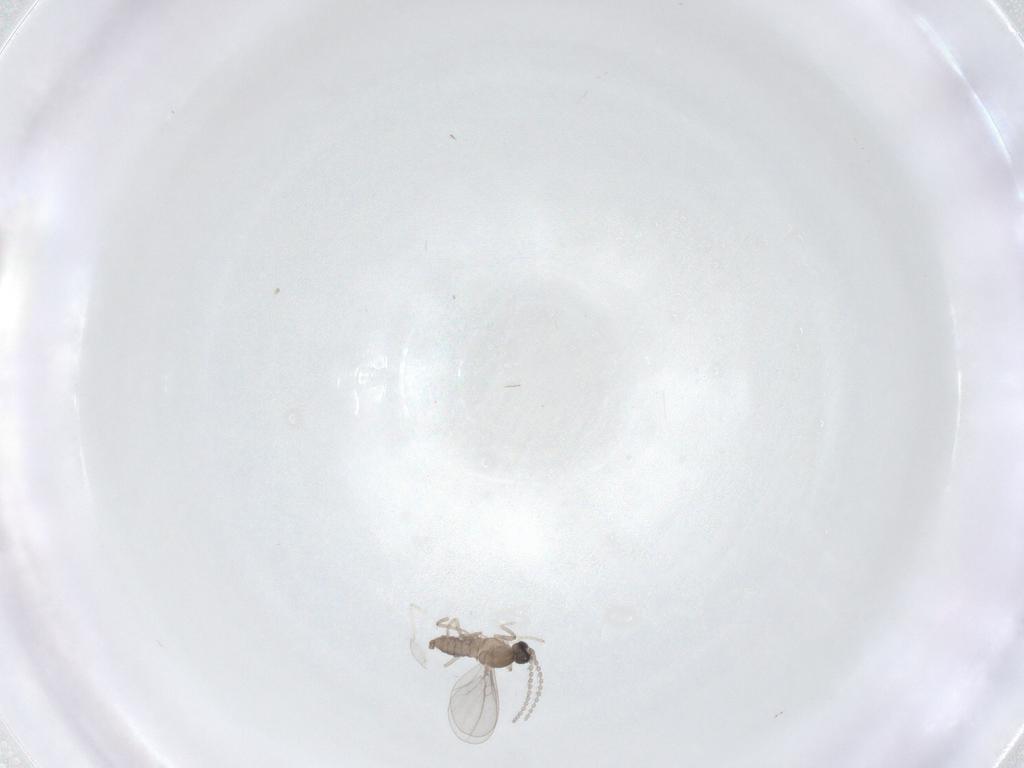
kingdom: Animalia
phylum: Arthropoda
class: Insecta
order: Diptera
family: Cecidomyiidae
